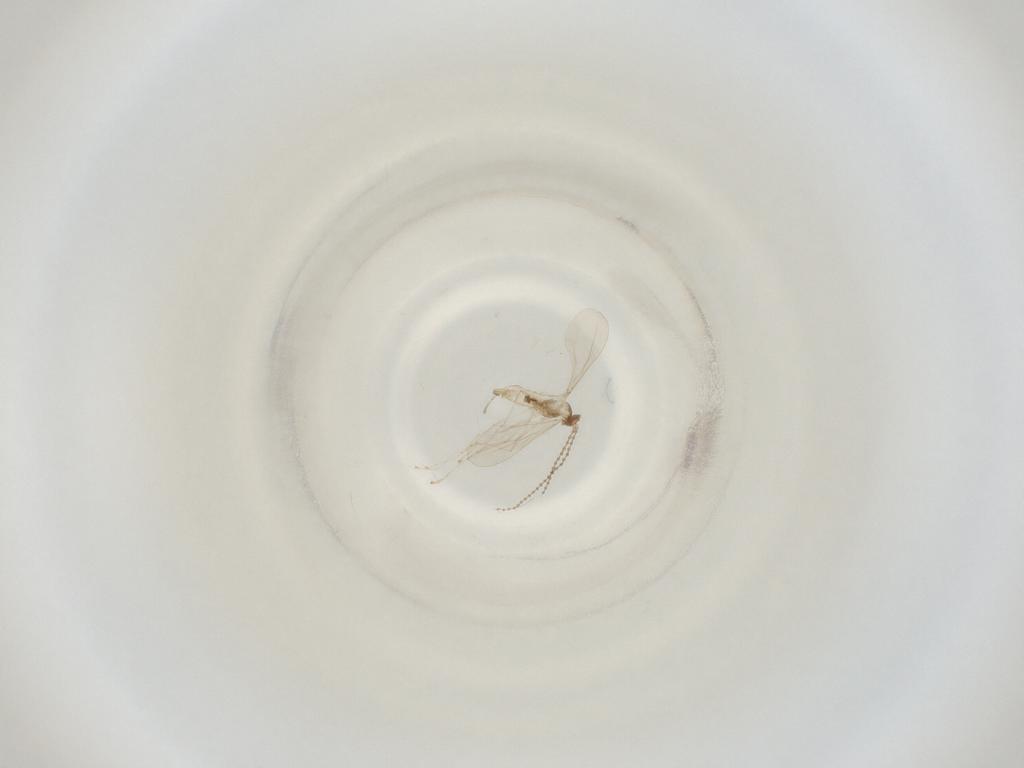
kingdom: Animalia
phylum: Arthropoda
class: Insecta
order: Diptera
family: Cecidomyiidae
